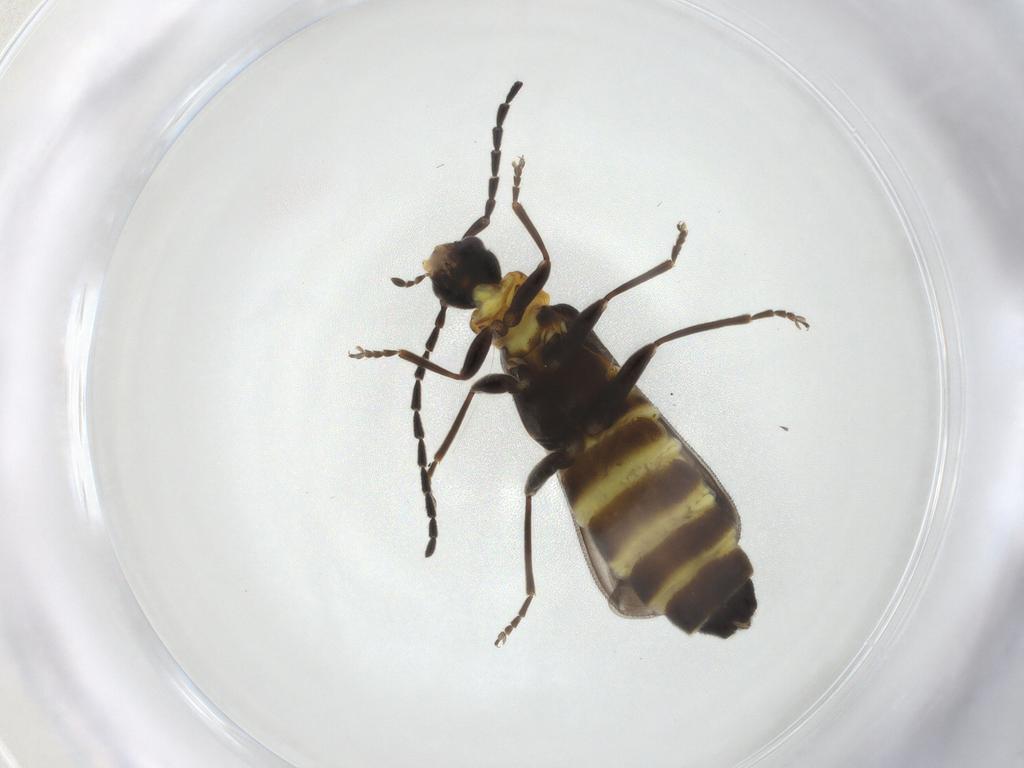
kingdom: Animalia
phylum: Arthropoda
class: Insecta
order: Coleoptera
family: Cantharidae
